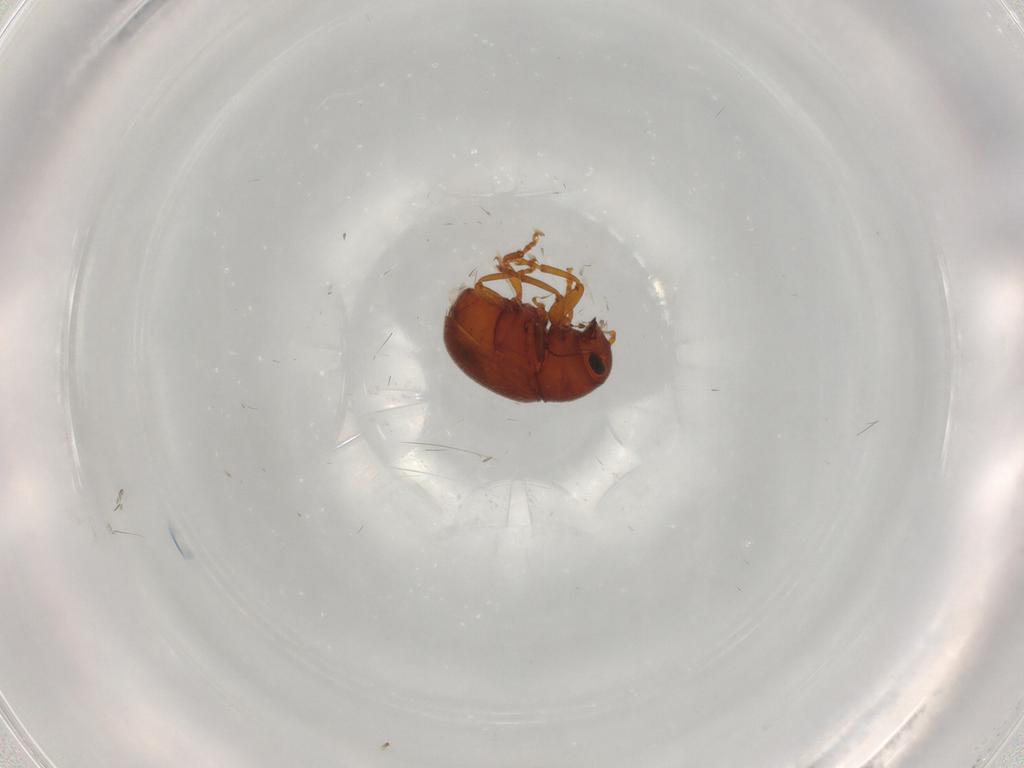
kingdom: Animalia
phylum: Arthropoda
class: Insecta
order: Coleoptera
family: Anthribidae
